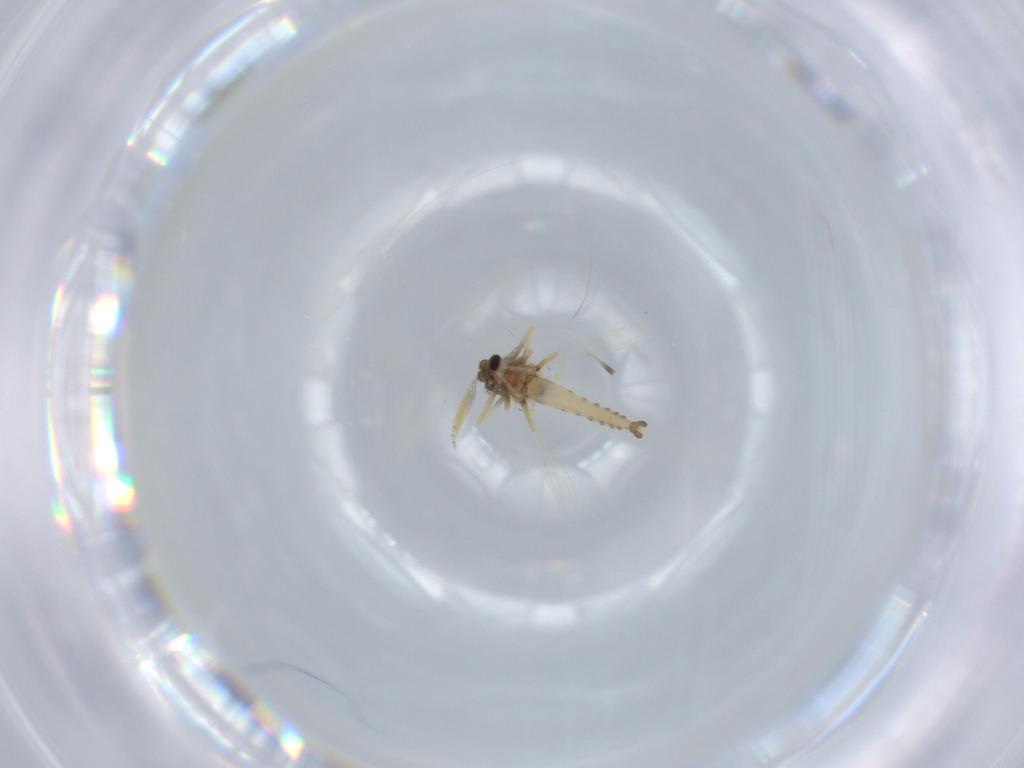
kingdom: Animalia
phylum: Arthropoda
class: Insecta
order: Diptera
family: Calliphoridae
